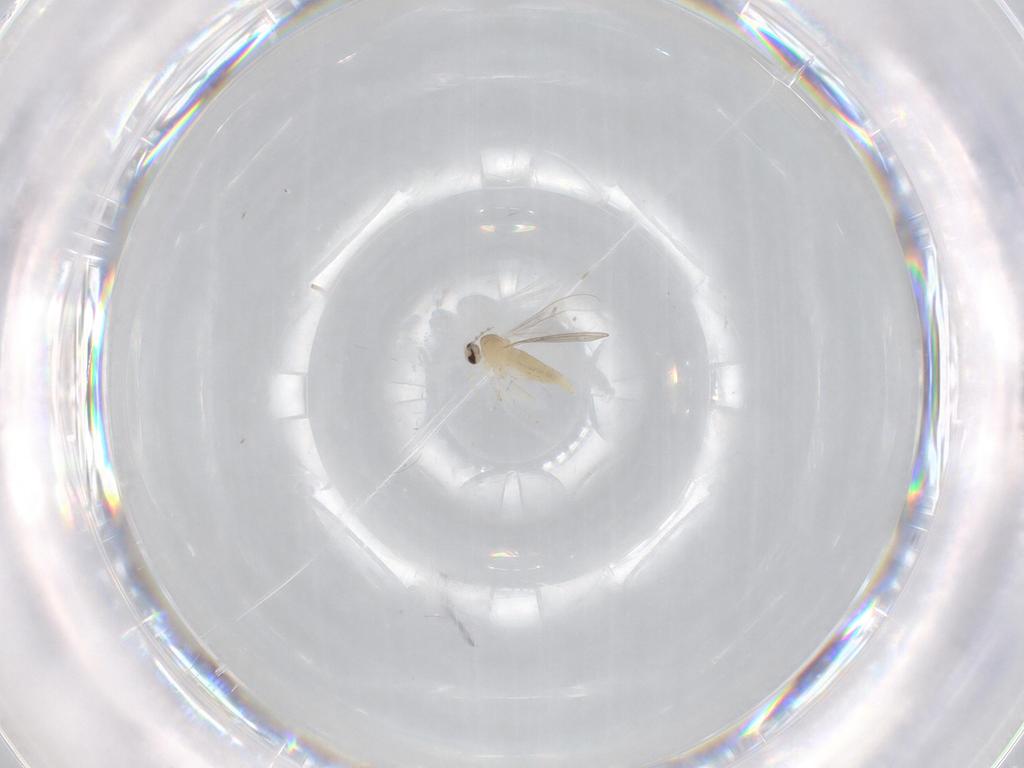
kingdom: Animalia
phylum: Arthropoda
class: Insecta
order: Diptera
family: Cecidomyiidae
